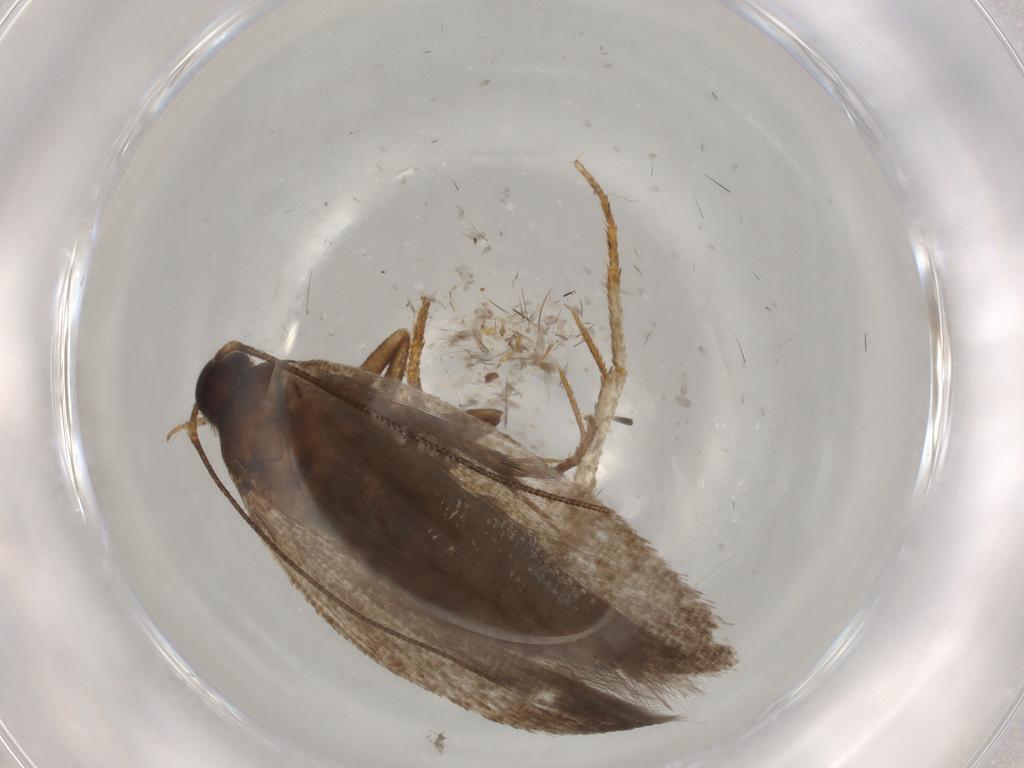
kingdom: Animalia
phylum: Arthropoda
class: Insecta
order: Lepidoptera
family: Gelechiidae
